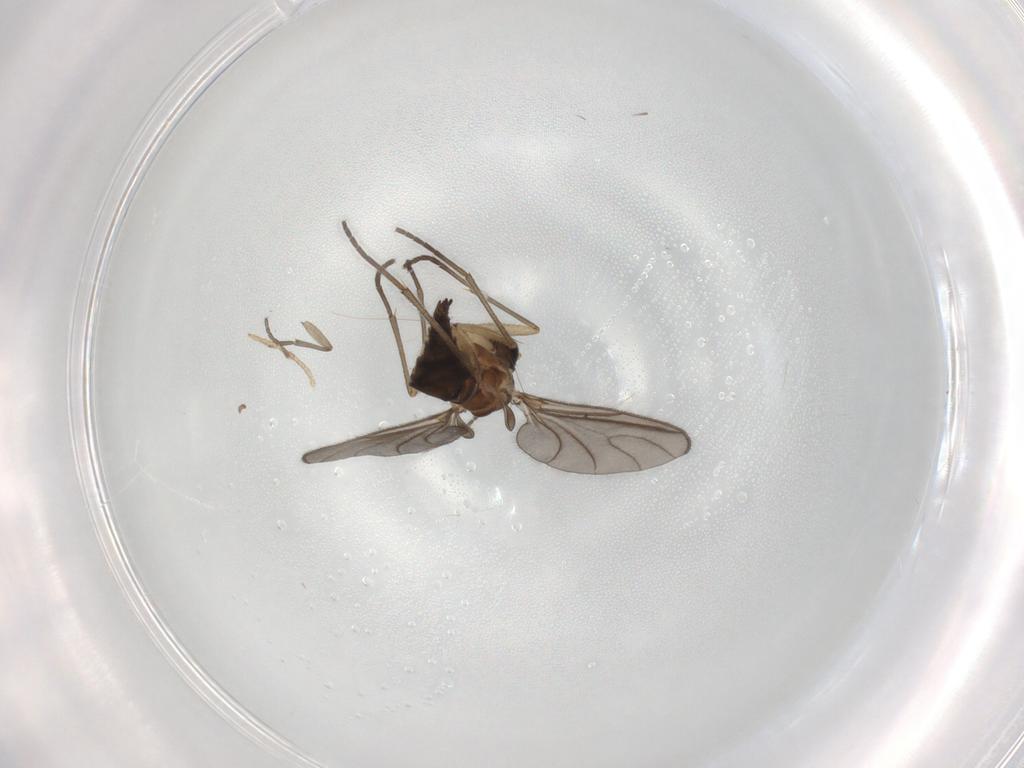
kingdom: Animalia
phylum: Arthropoda
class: Insecta
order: Diptera
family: Sciaridae
